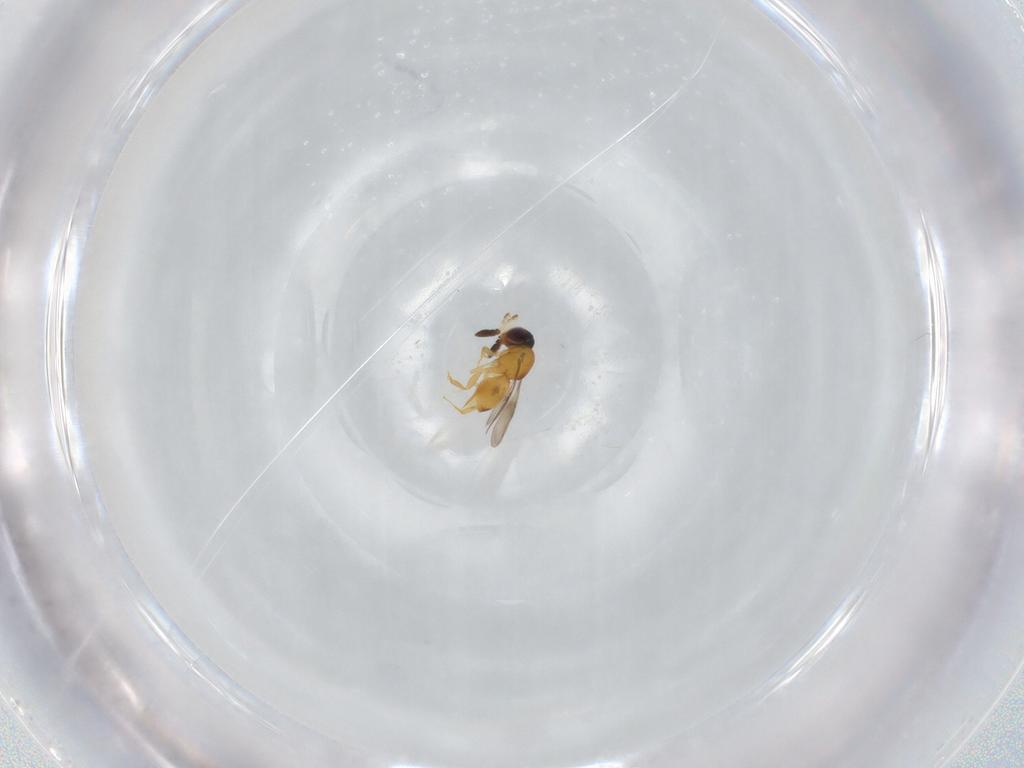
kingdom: Animalia
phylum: Arthropoda
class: Insecta
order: Hymenoptera
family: Ceraphronidae
